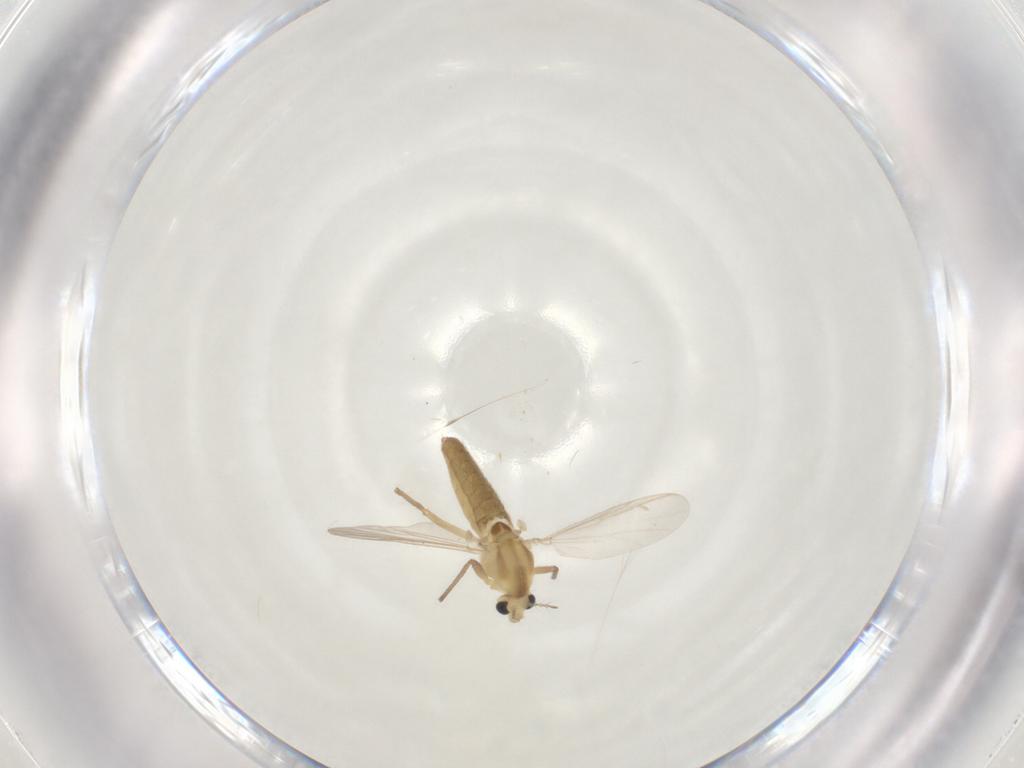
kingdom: Animalia
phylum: Arthropoda
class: Insecta
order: Diptera
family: Chironomidae
